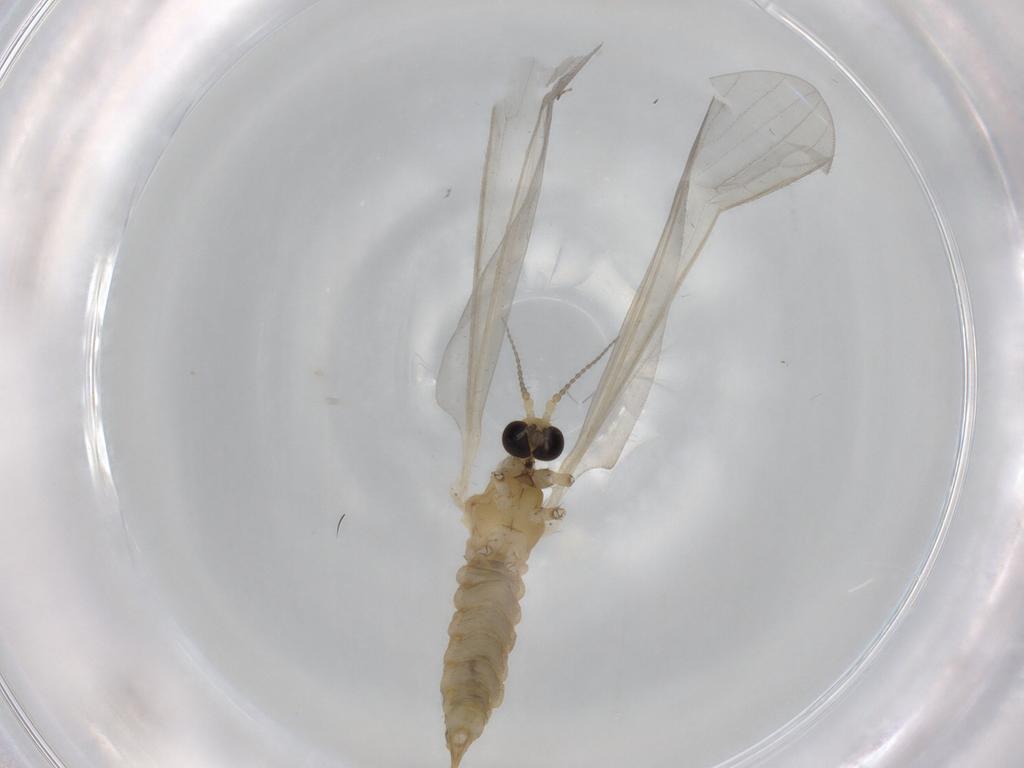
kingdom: Animalia
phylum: Arthropoda
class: Insecta
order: Diptera
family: Limoniidae
